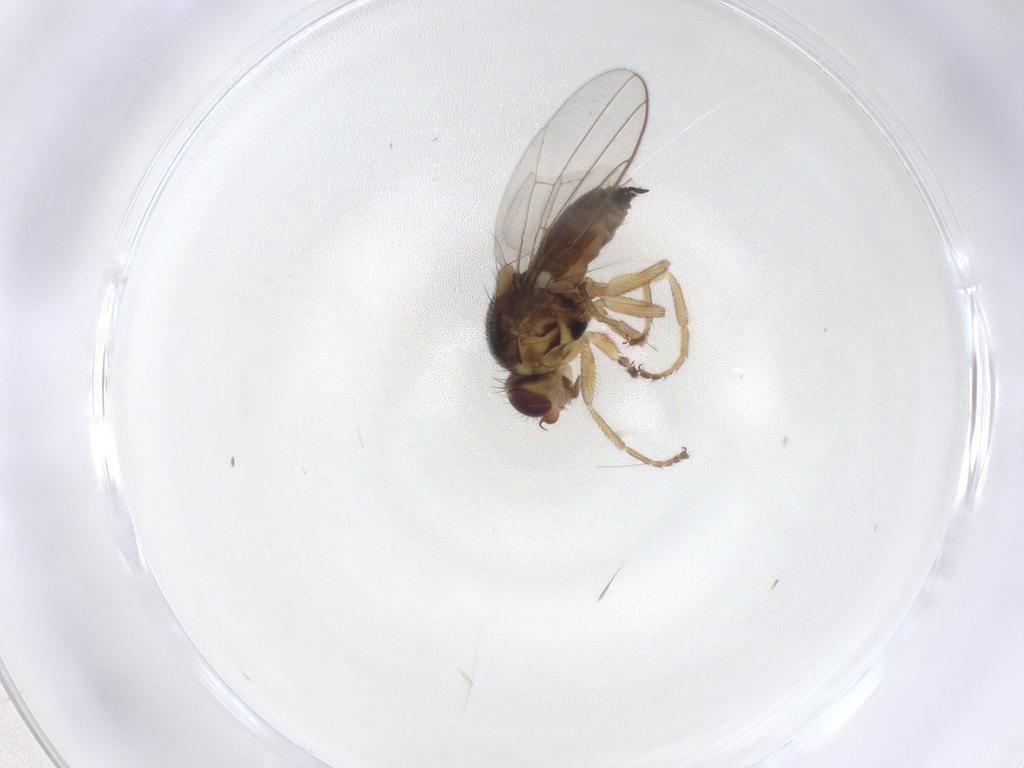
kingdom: Animalia
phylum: Arthropoda
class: Insecta
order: Diptera
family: Chloropidae
